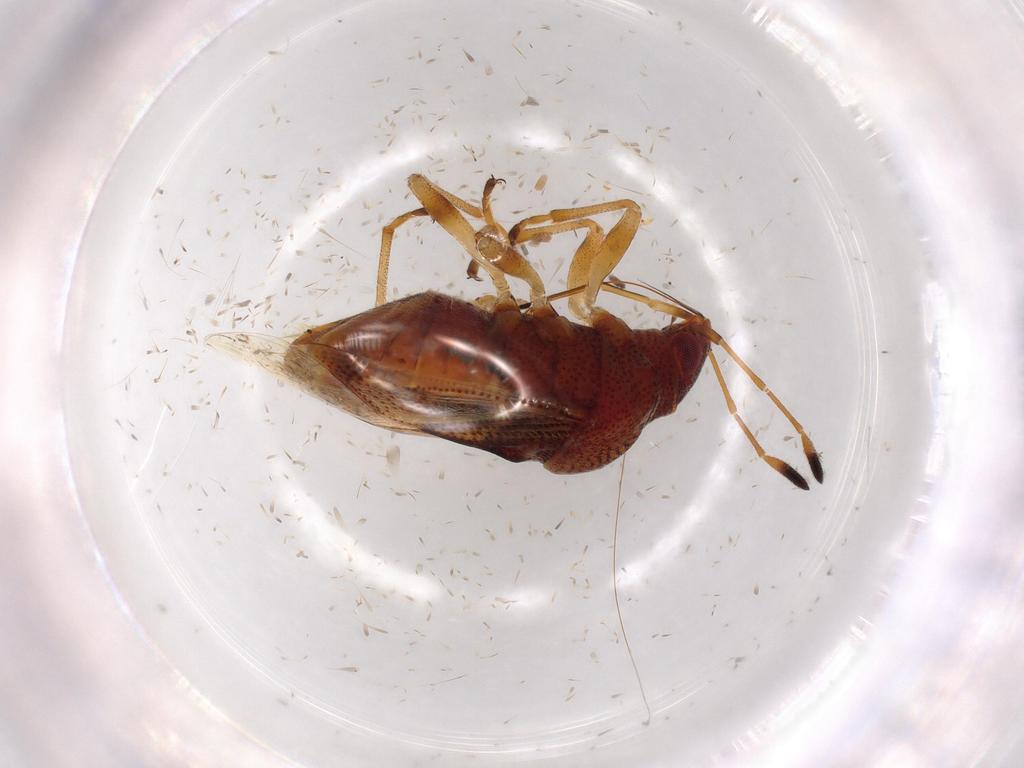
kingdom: Animalia
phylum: Arthropoda
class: Insecta
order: Hemiptera
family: Lygaeidae
